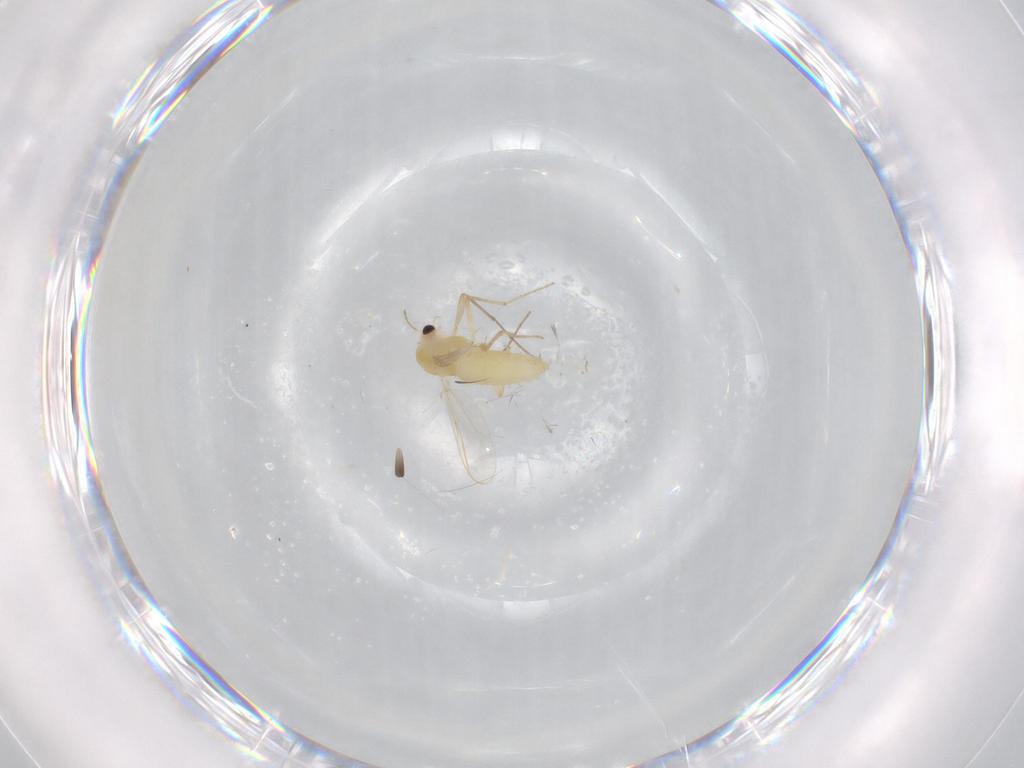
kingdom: Animalia
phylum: Arthropoda
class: Insecta
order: Diptera
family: Chironomidae
